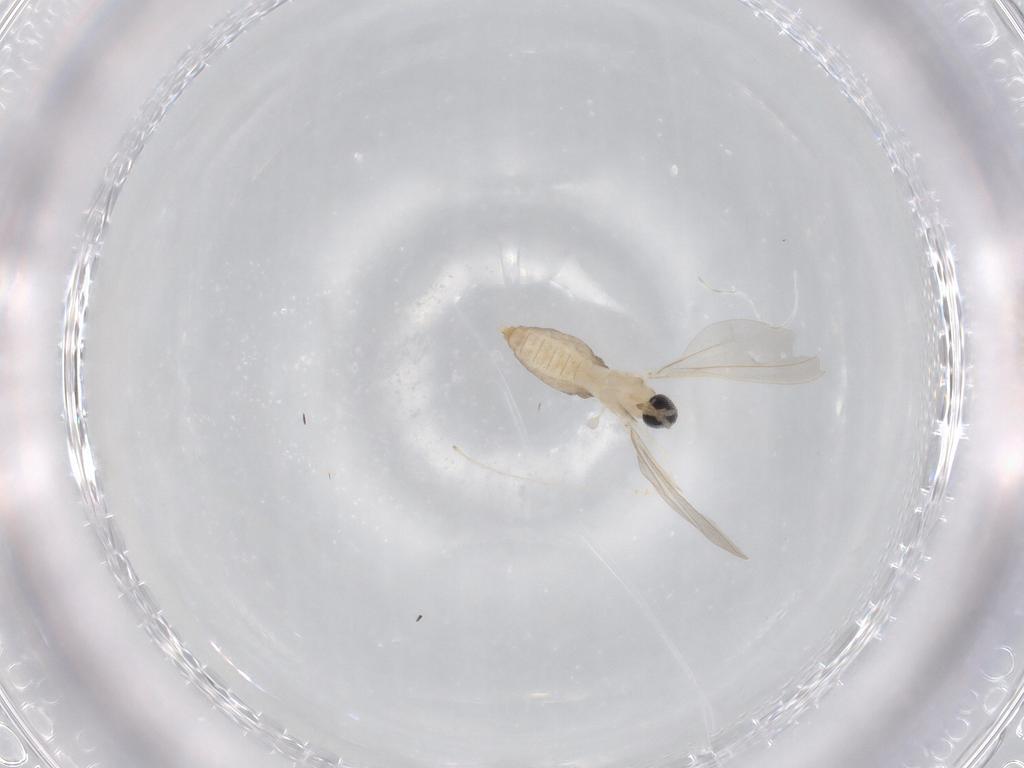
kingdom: Animalia
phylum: Arthropoda
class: Insecta
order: Diptera
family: Cecidomyiidae
